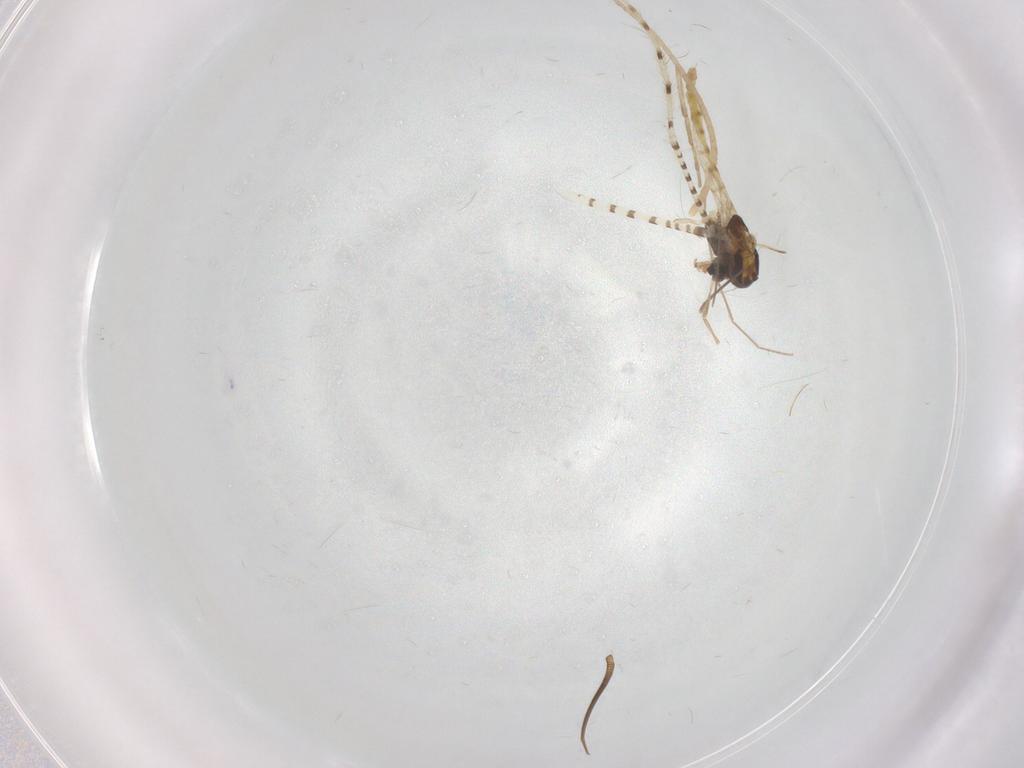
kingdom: Animalia
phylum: Arthropoda
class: Insecta
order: Diptera
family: Chironomidae
